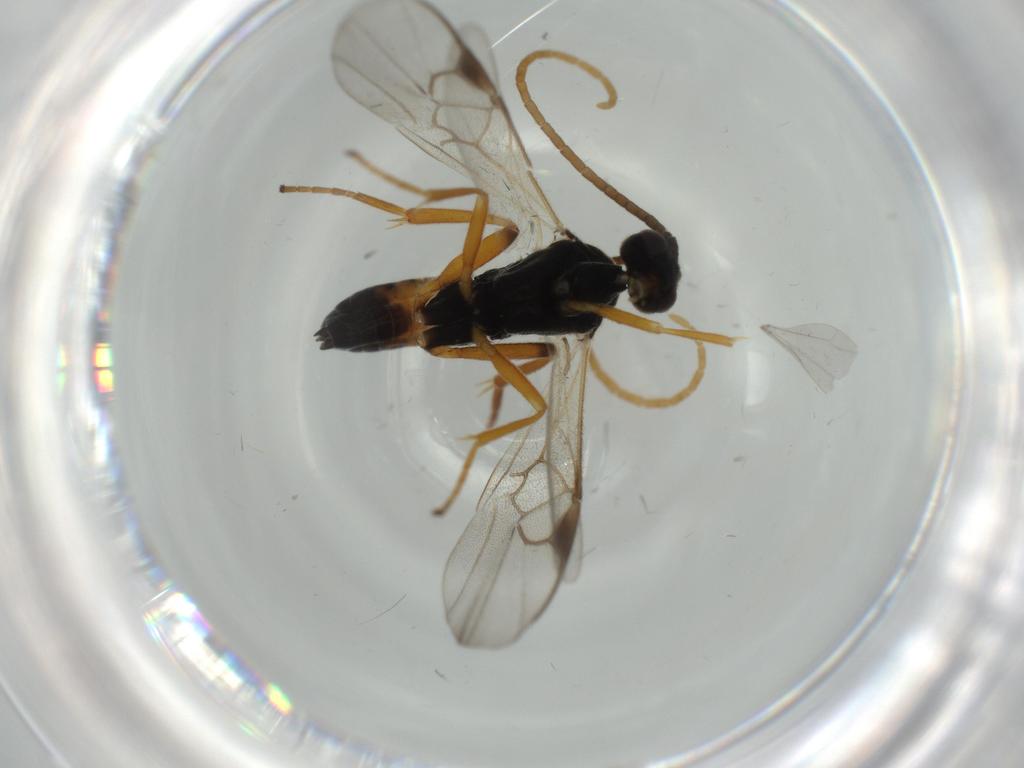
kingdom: Animalia
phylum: Arthropoda
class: Insecta
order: Hymenoptera
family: Braconidae
